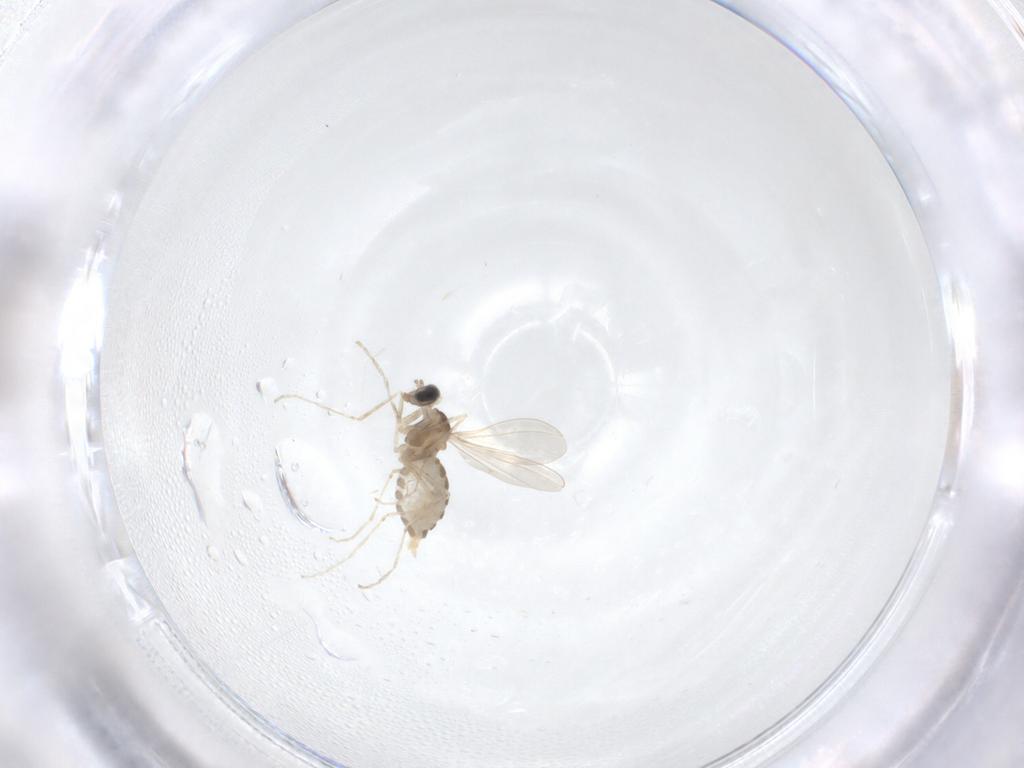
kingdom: Animalia
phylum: Arthropoda
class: Insecta
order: Diptera
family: Cecidomyiidae
